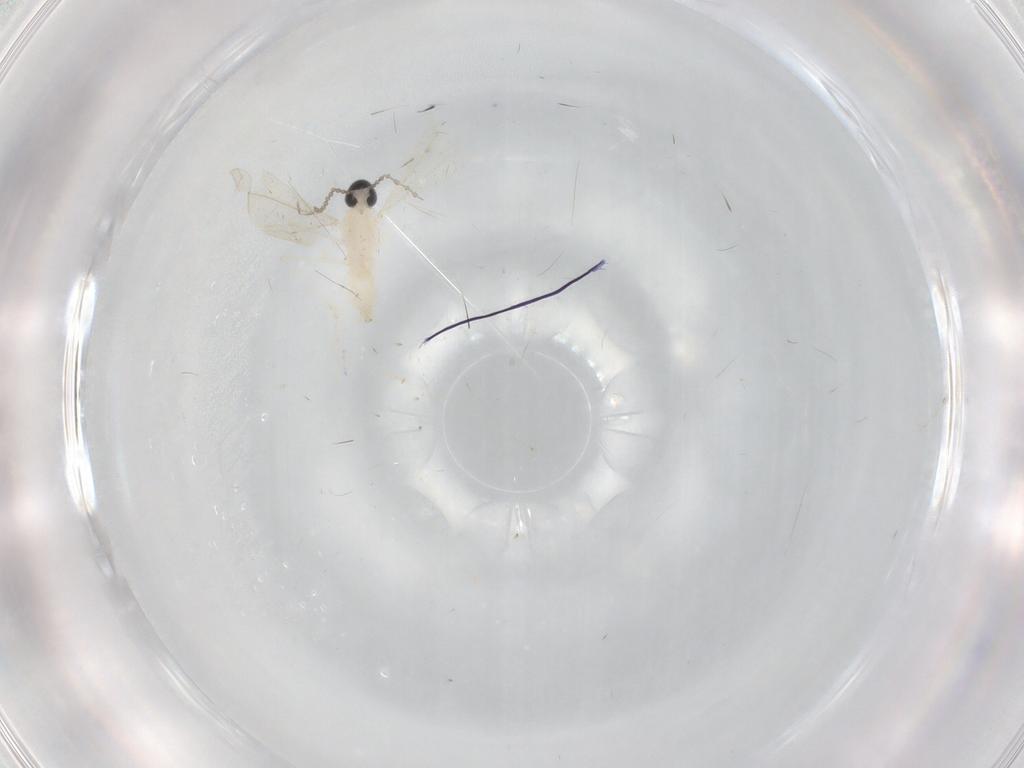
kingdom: Animalia
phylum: Arthropoda
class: Insecta
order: Diptera
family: Cecidomyiidae
